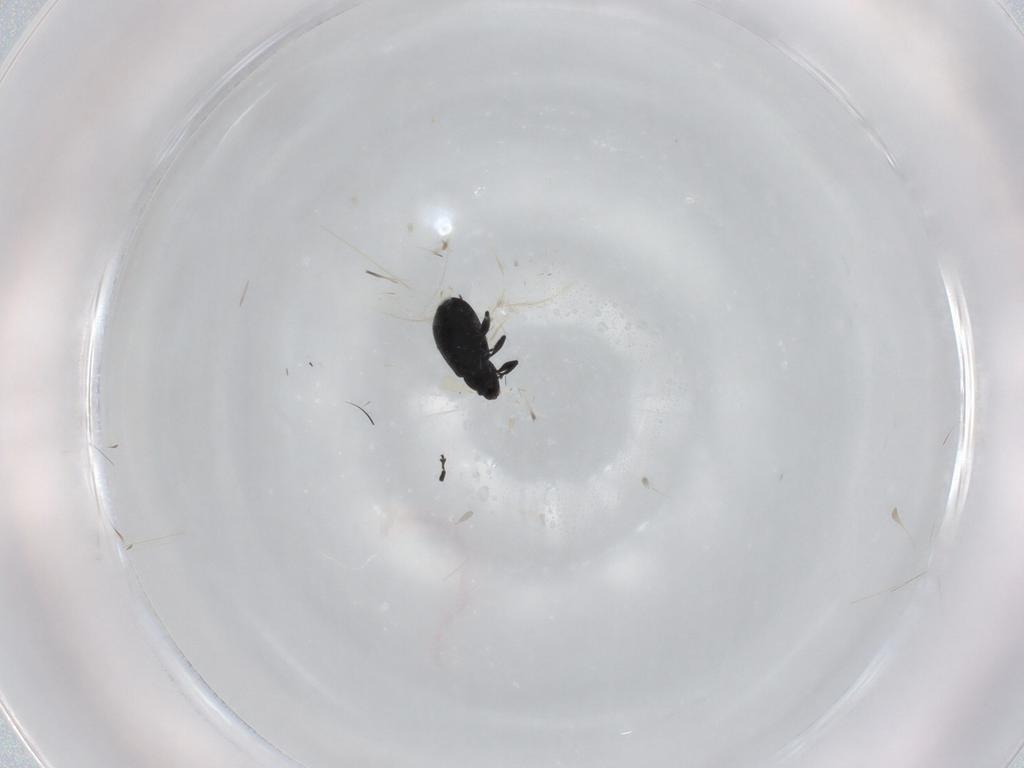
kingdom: Animalia
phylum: Arthropoda
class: Insecta
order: Coleoptera
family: Curculionidae
